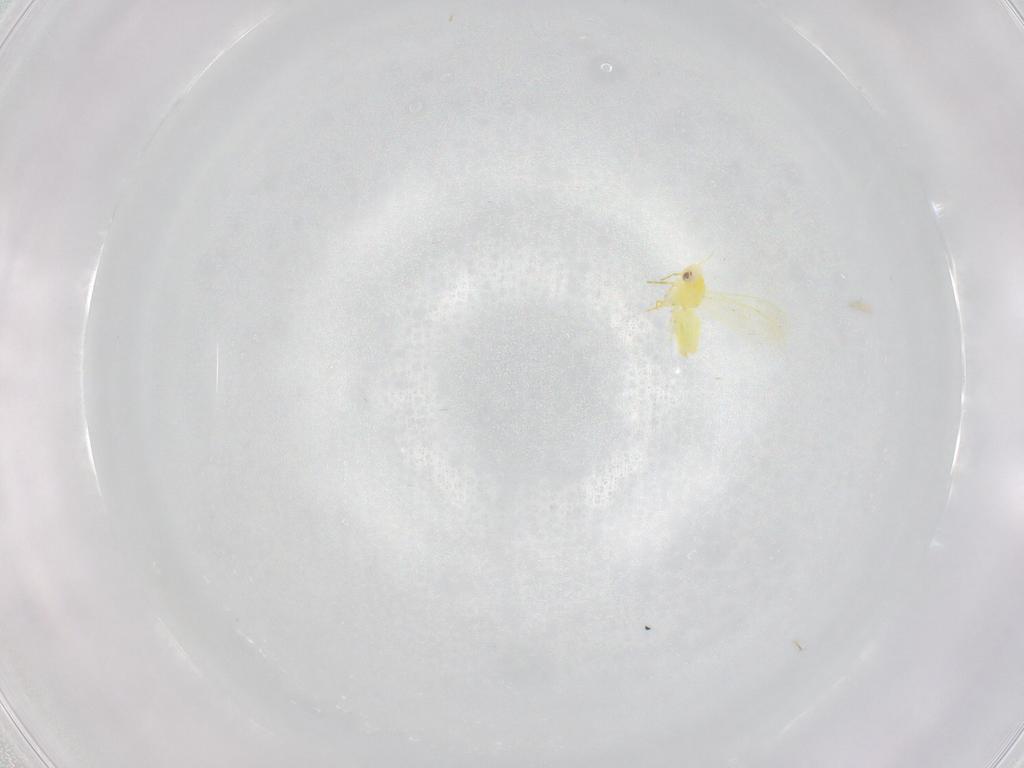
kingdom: Animalia
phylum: Arthropoda
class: Insecta
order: Hemiptera
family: Aleyrodidae
